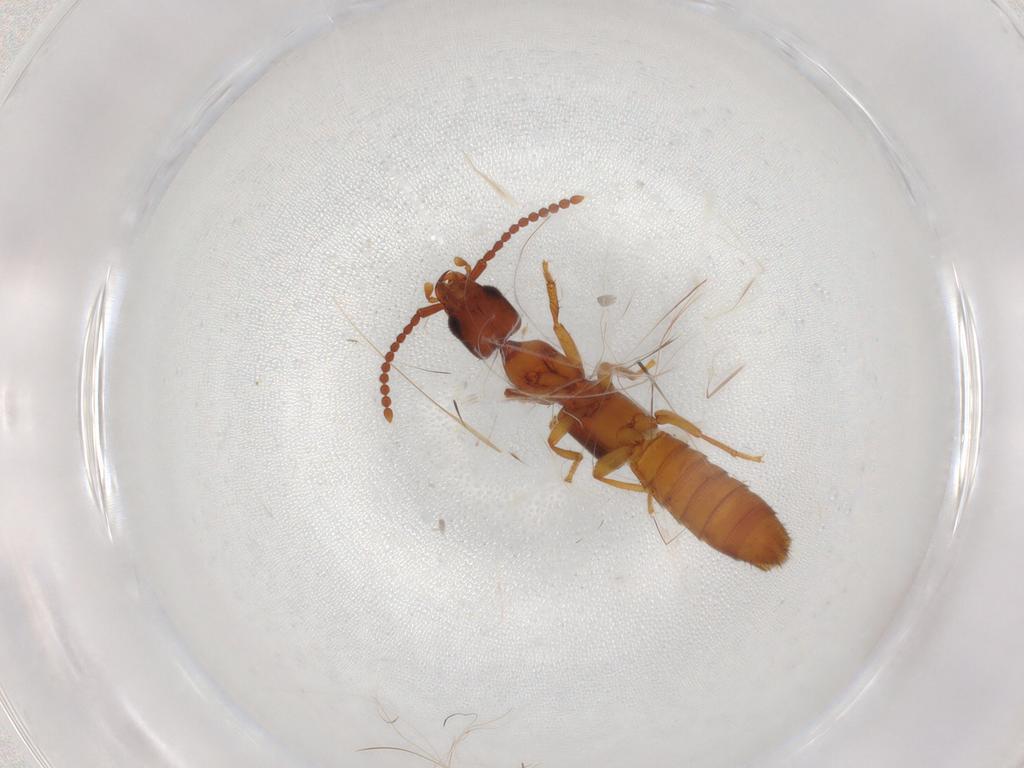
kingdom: Animalia
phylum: Arthropoda
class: Insecta
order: Coleoptera
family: Staphylinidae
